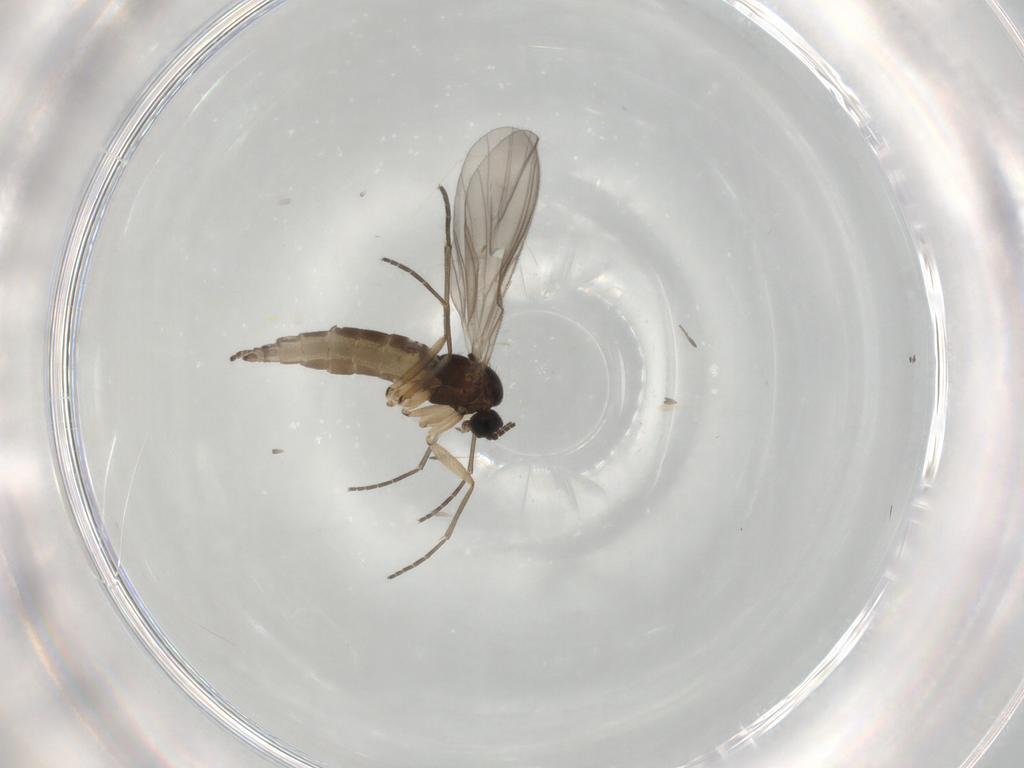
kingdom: Animalia
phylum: Arthropoda
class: Insecta
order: Diptera
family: Sciaridae
